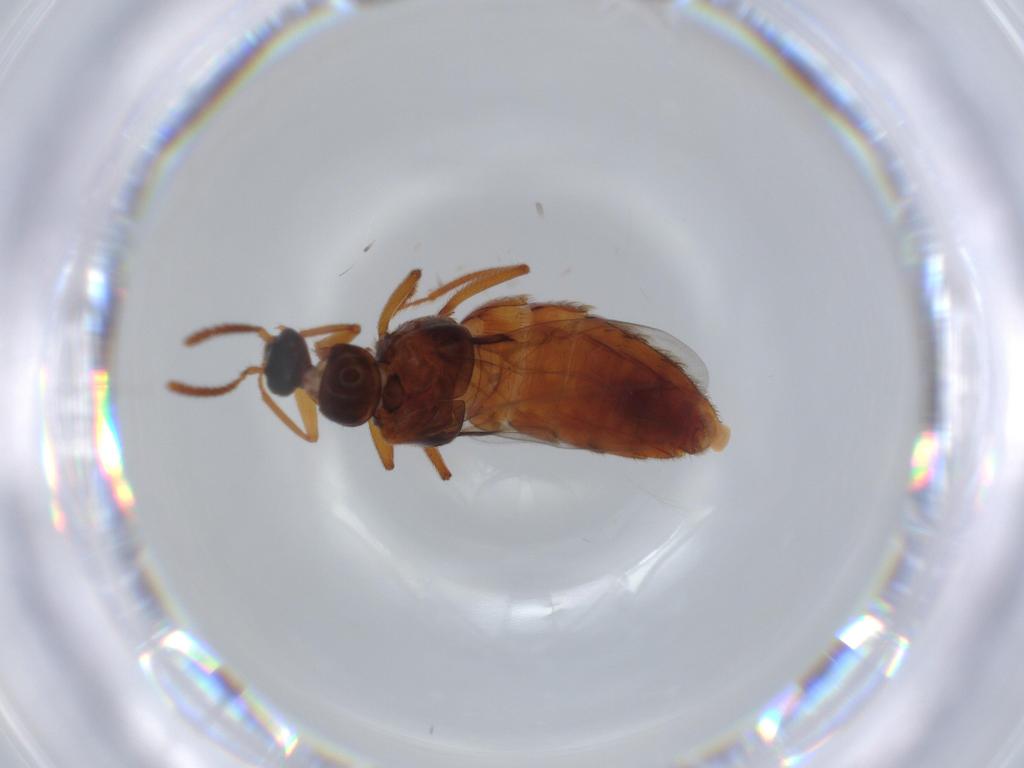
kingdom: Animalia
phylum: Arthropoda
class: Insecta
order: Coleoptera
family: Staphylinidae
